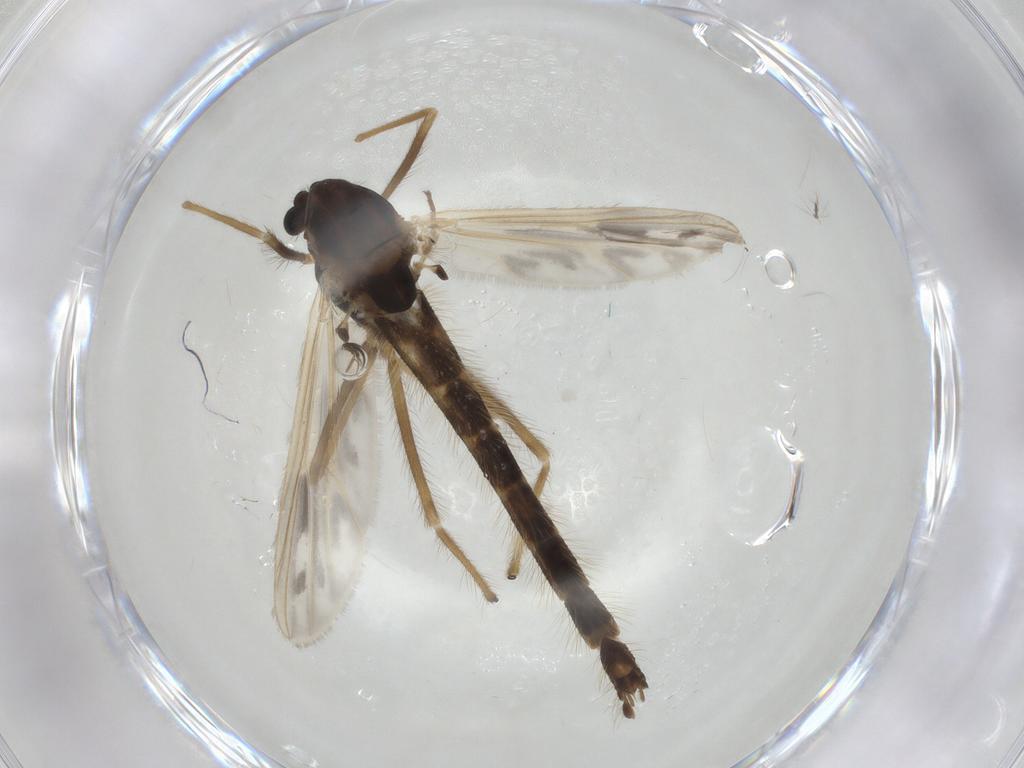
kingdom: Animalia
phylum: Arthropoda
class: Insecta
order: Diptera
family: Chironomidae
